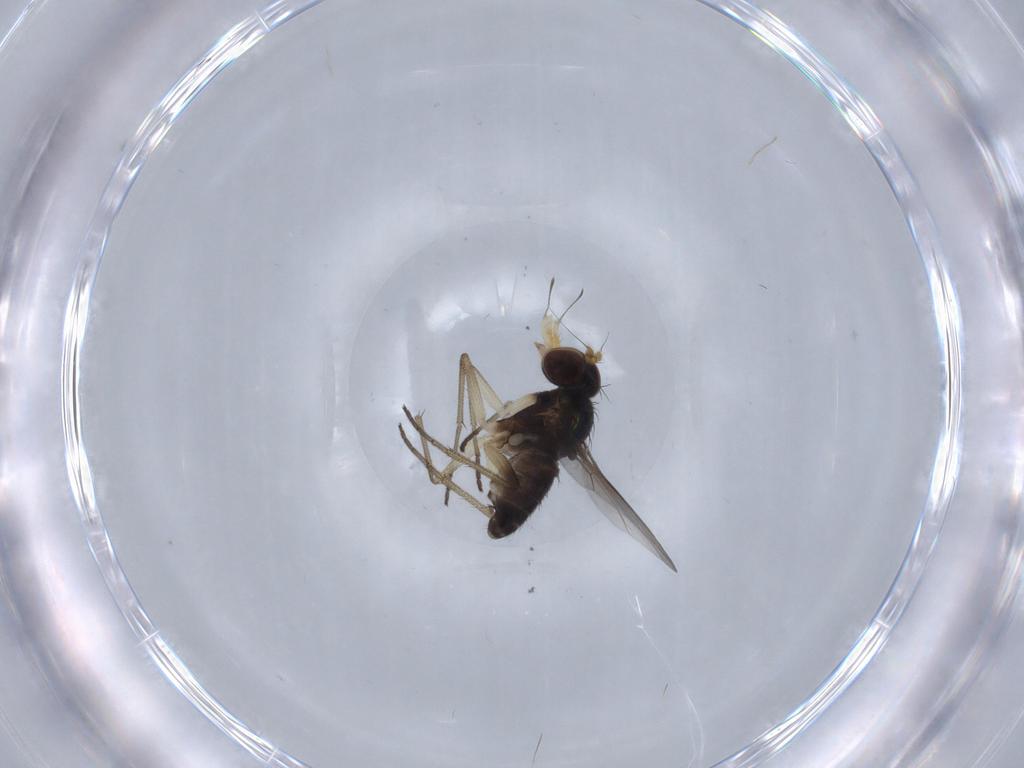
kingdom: Animalia
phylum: Arthropoda
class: Insecta
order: Diptera
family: Dolichopodidae
